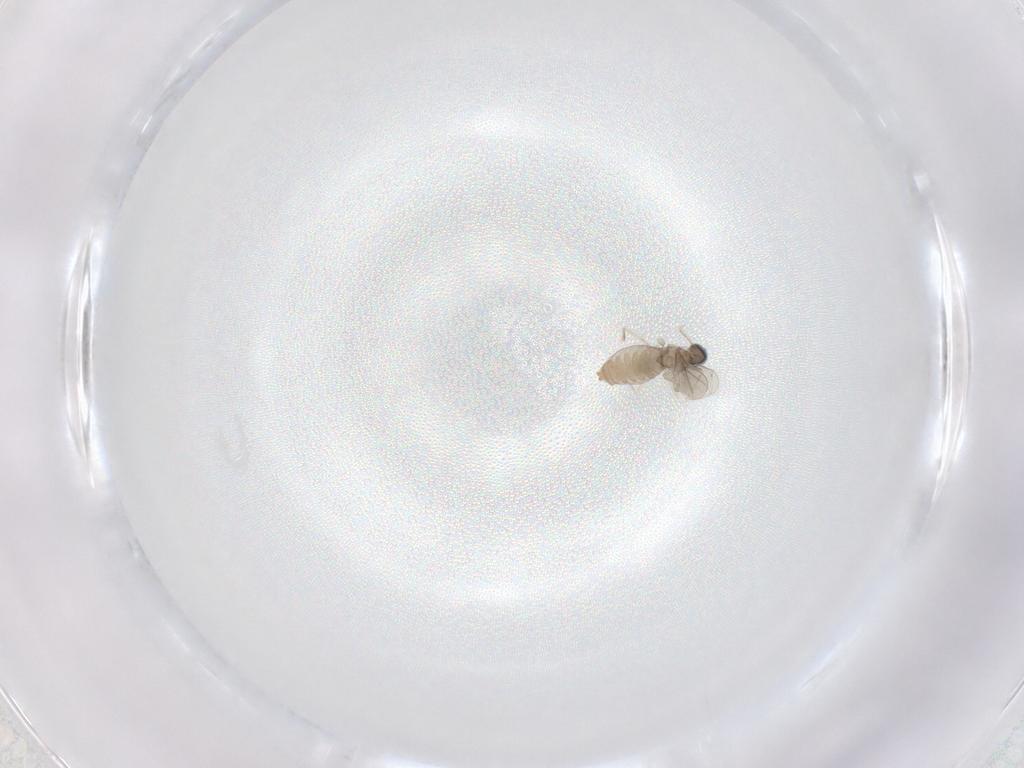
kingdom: Animalia
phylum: Arthropoda
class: Insecta
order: Diptera
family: Cecidomyiidae
